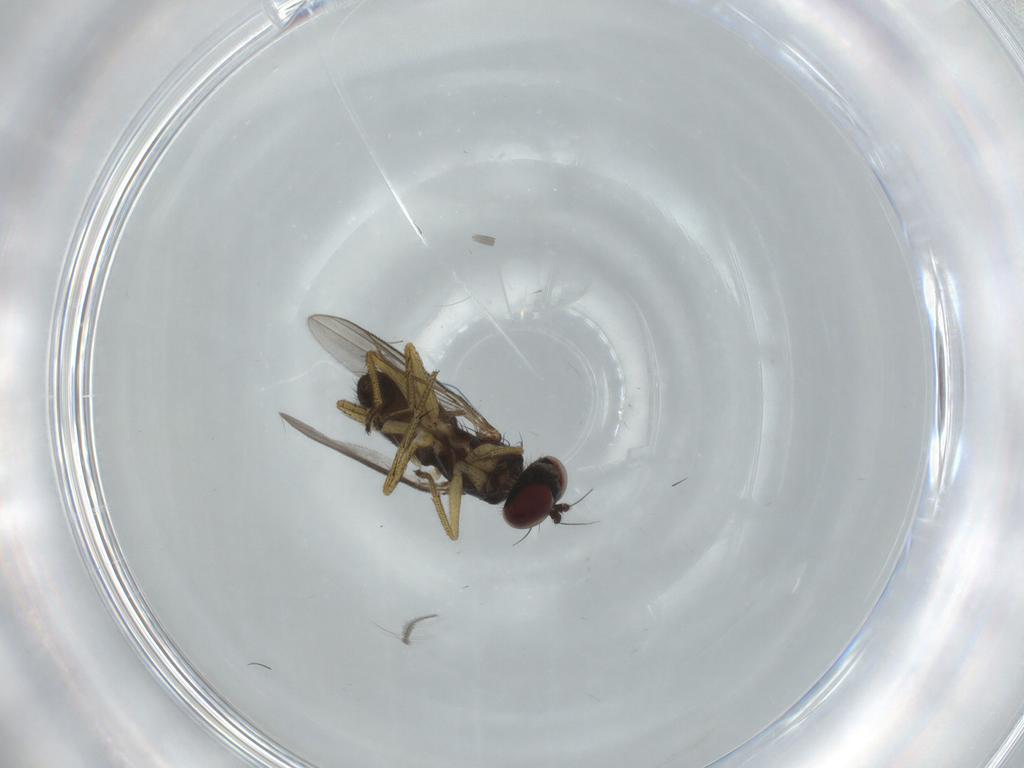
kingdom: Animalia
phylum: Arthropoda
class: Insecta
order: Diptera
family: Dolichopodidae
